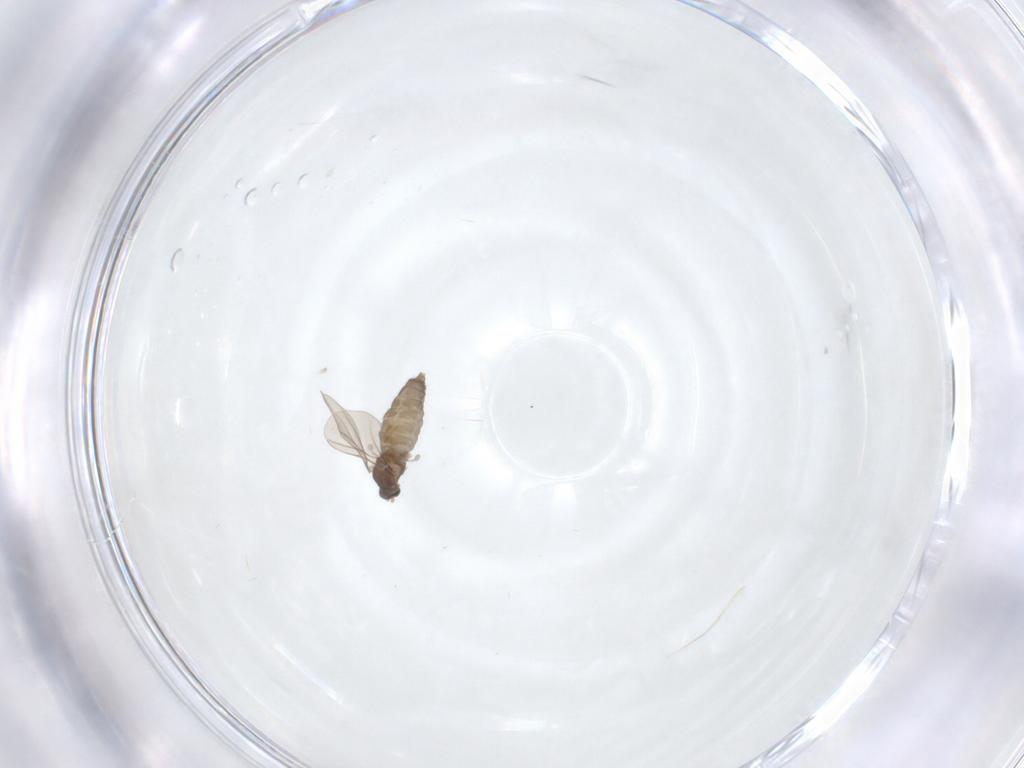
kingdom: Animalia
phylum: Arthropoda
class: Insecta
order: Diptera
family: Cecidomyiidae
